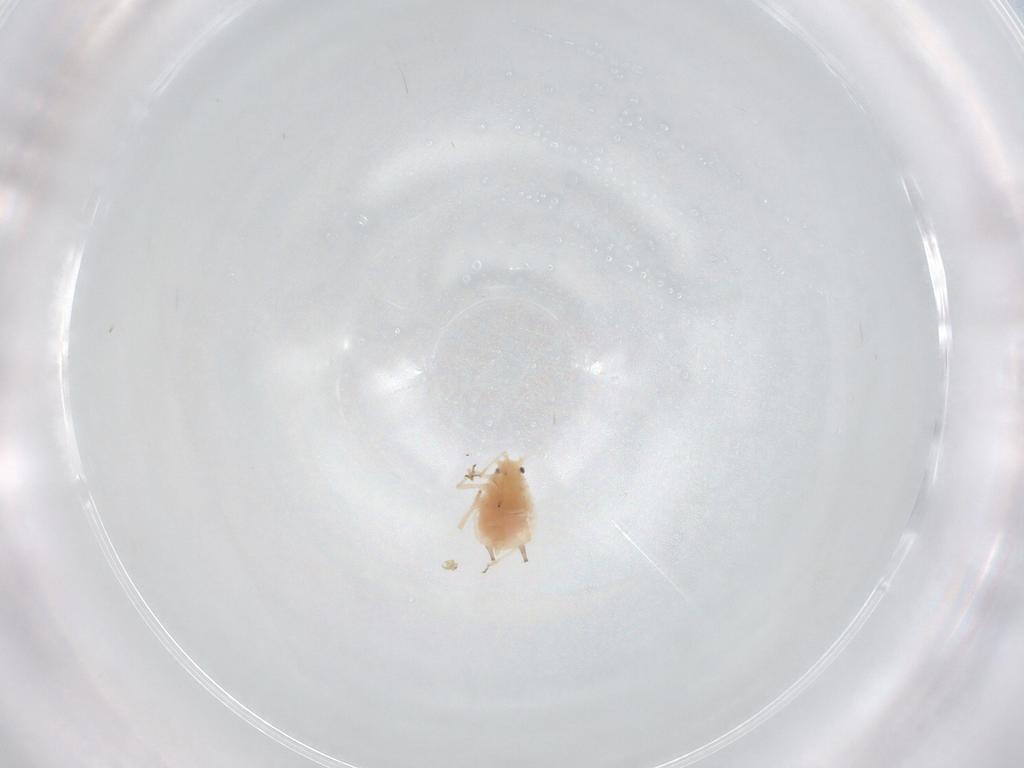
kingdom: Animalia
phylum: Arthropoda
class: Insecta
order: Hemiptera
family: Aphididae
